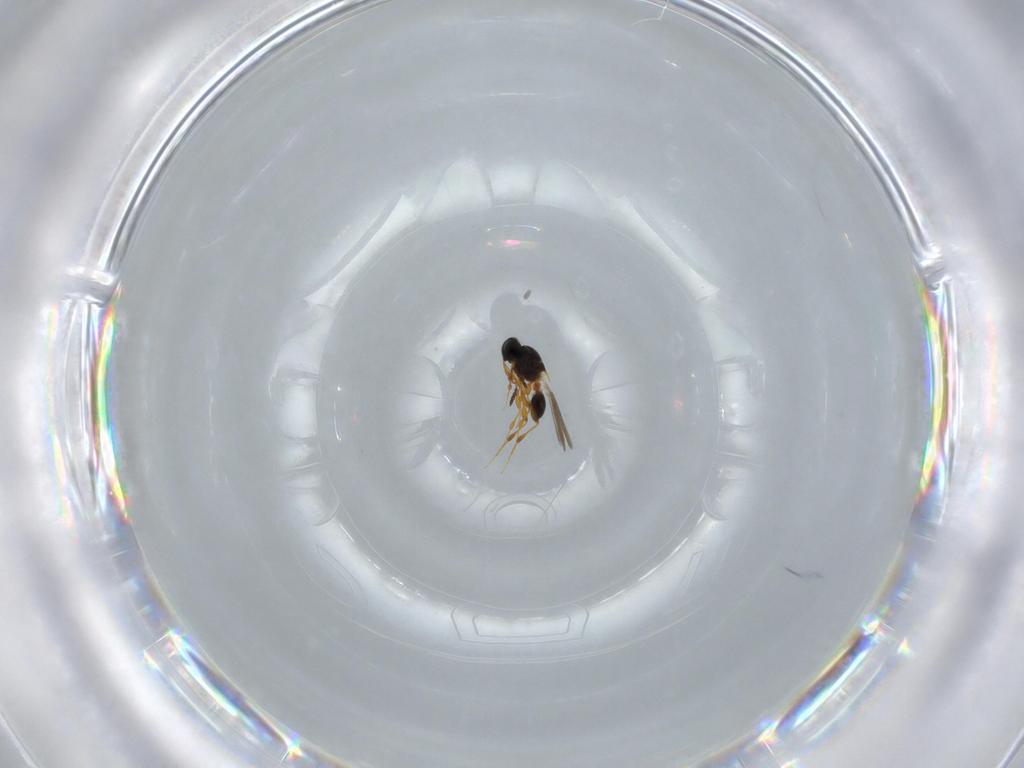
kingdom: Animalia
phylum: Arthropoda
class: Insecta
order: Hymenoptera
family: Platygastridae
